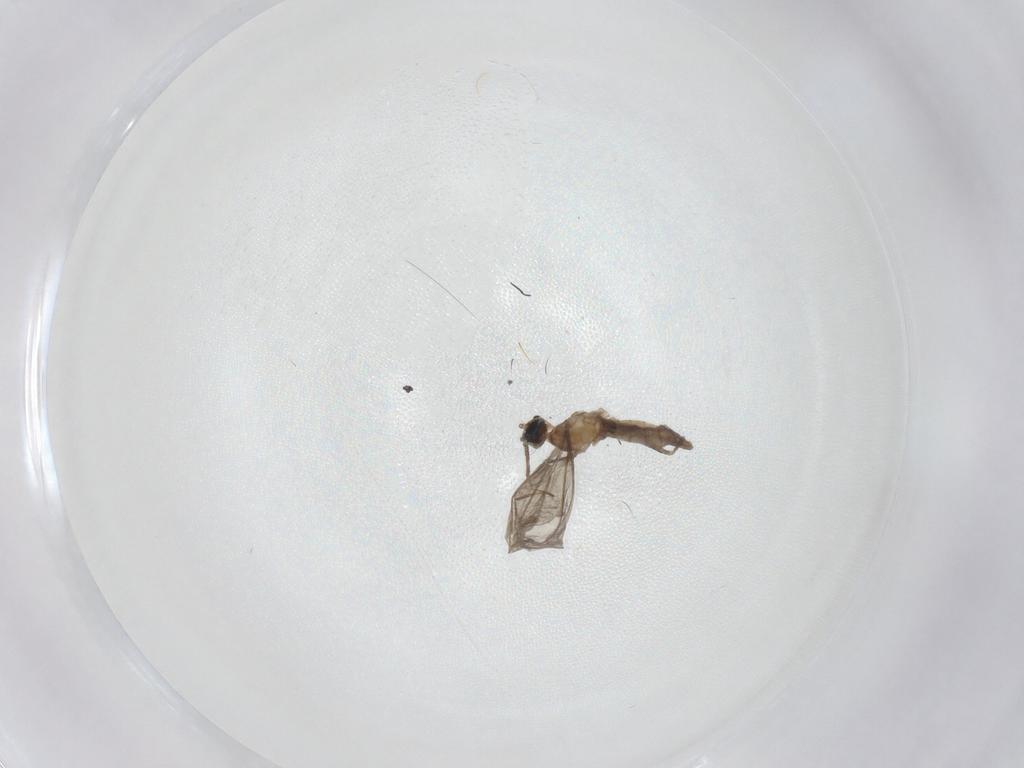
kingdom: Animalia
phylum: Arthropoda
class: Insecta
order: Diptera
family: Cecidomyiidae
